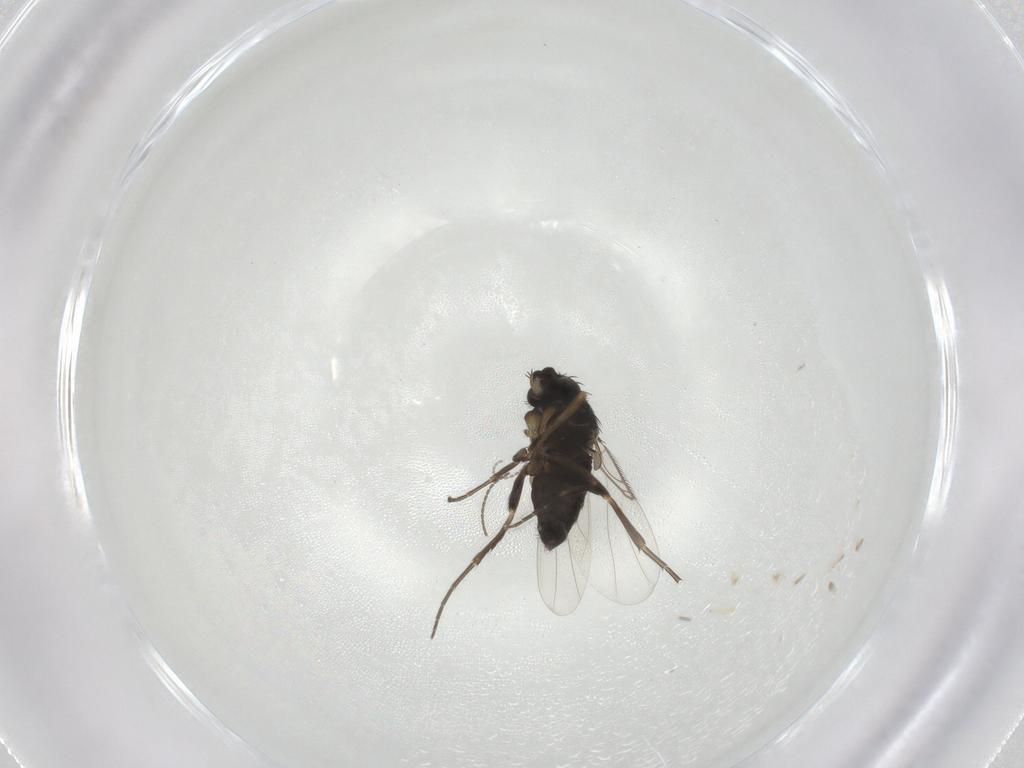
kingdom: Animalia
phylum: Arthropoda
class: Insecta
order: Diptera
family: Phoridae
